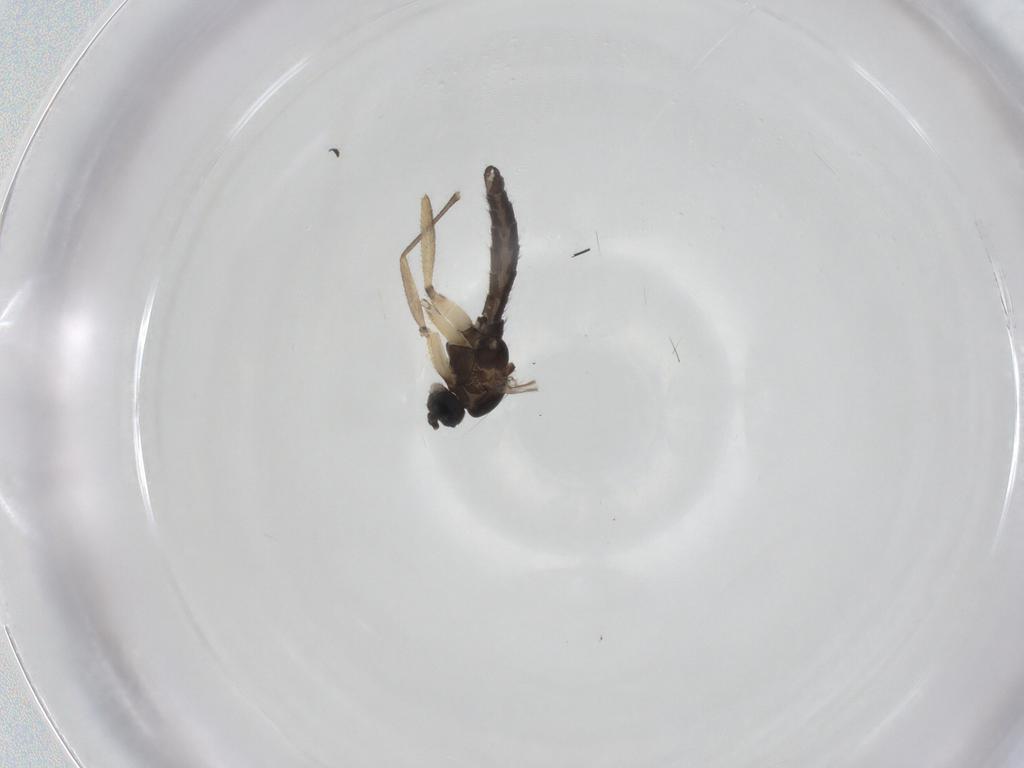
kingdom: Animalia
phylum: Arthropoda
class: Insecta
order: Diptera
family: Sciaridae
